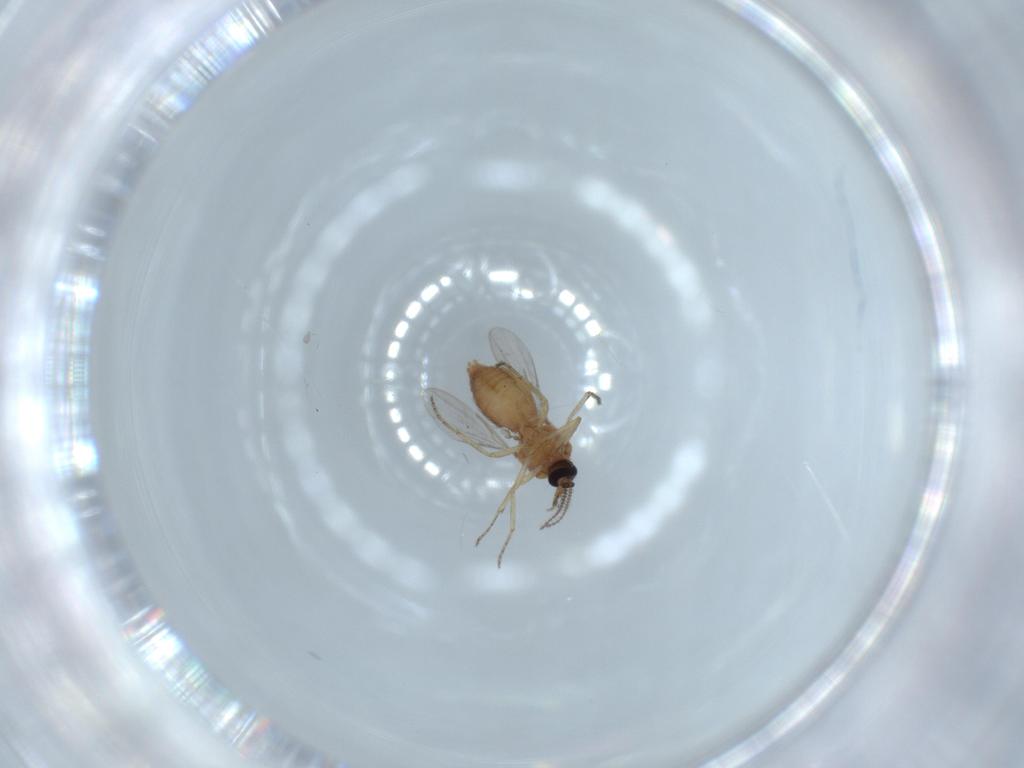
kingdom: Animalia
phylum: Arthropoda
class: Insecta
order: Diptera
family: Ceratopogonidae
